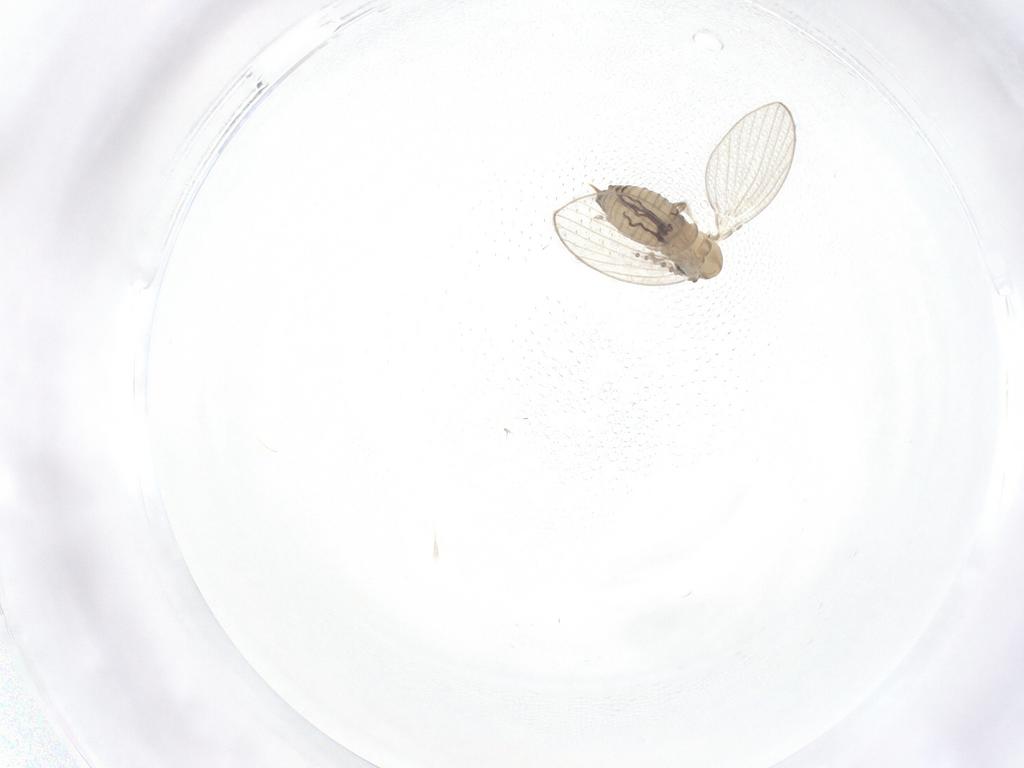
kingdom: Animalia
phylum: Arthropoda
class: Insecta
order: Diptera
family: Psychodidae
